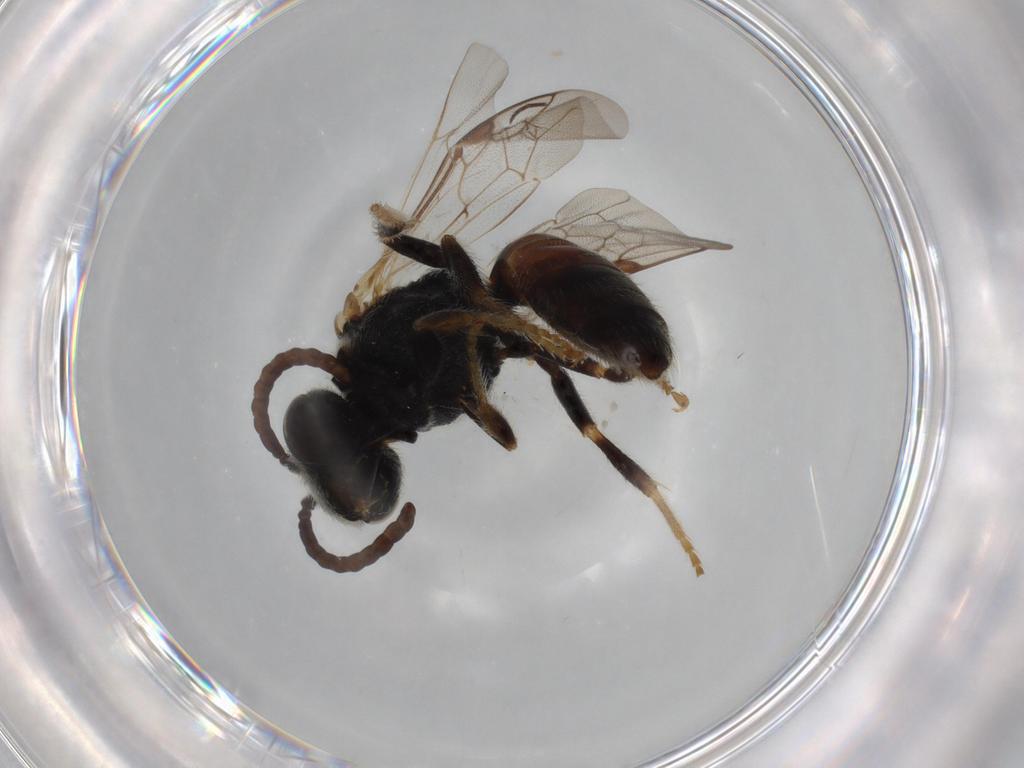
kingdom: Animalia
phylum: Arthropoda
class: Insecta
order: Hymenoptera
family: Halictidae
